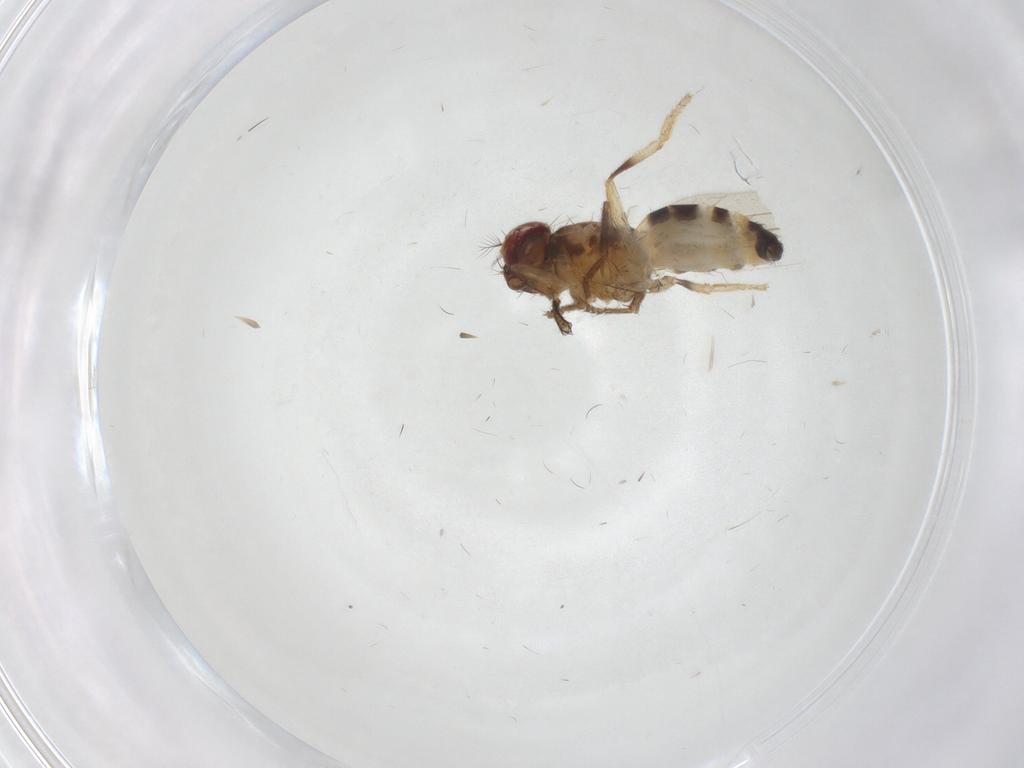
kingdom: Animalia
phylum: Arthropoda
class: Insecta
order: Diptera
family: Periscelididae
